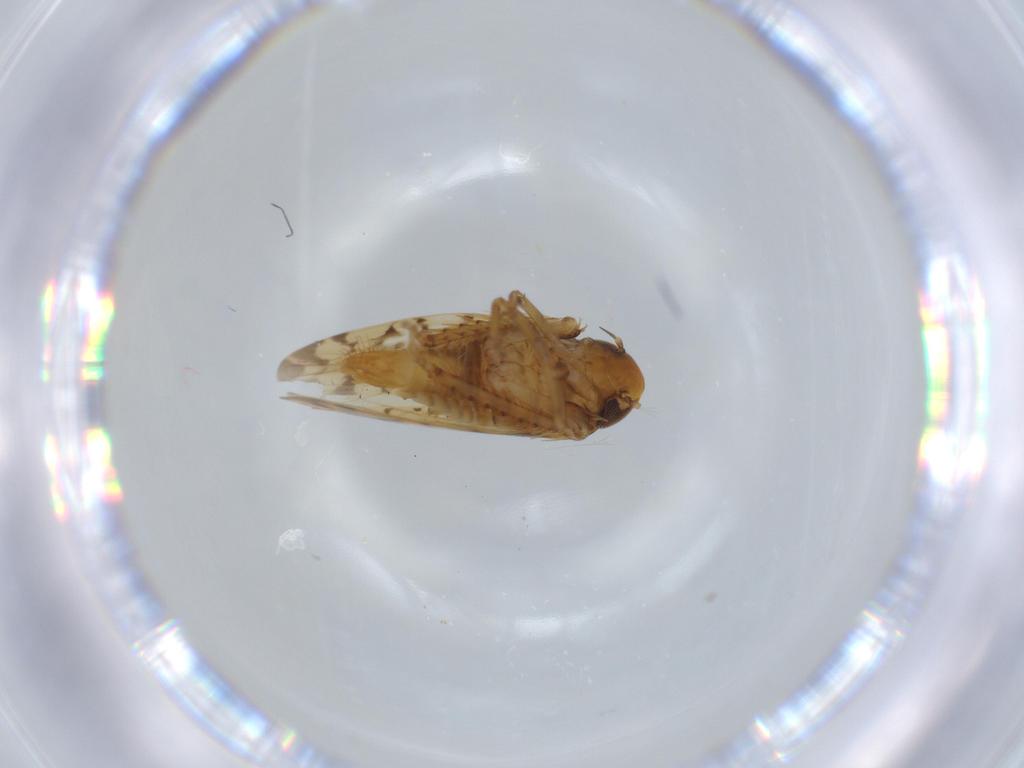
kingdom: Animalia
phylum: Arthropoda
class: Insecta
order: Hemiptera
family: Cicadellidae
